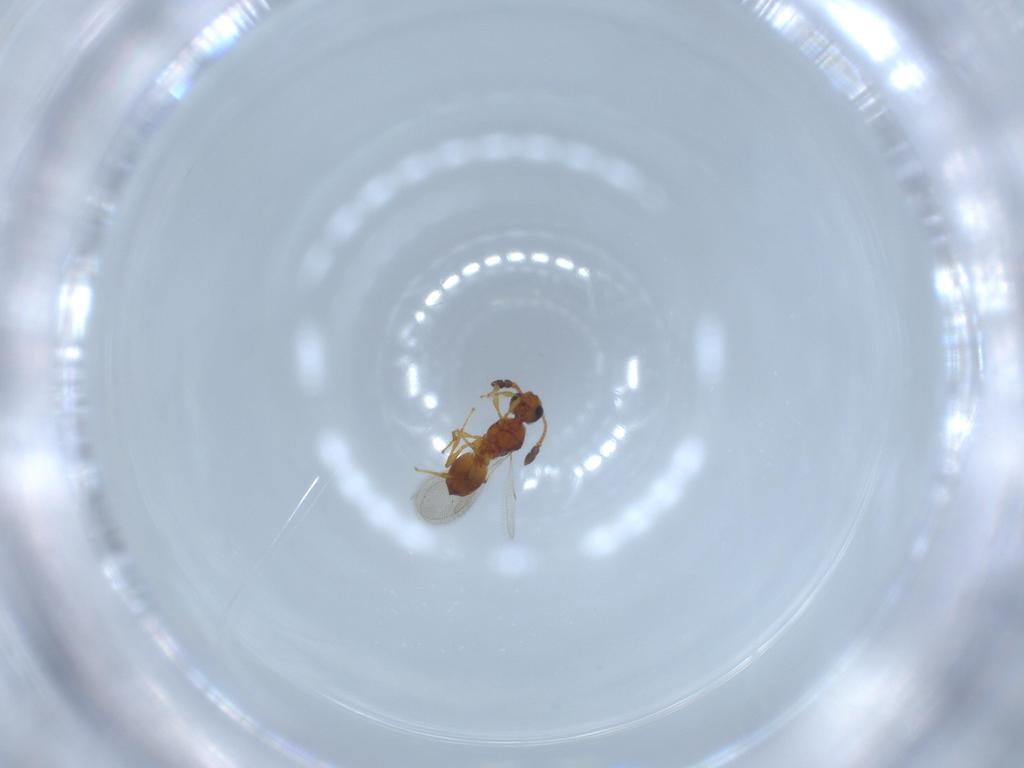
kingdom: Animalia
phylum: Arthropoda
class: Insecta
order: Hymenoptera
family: Diapriidae
